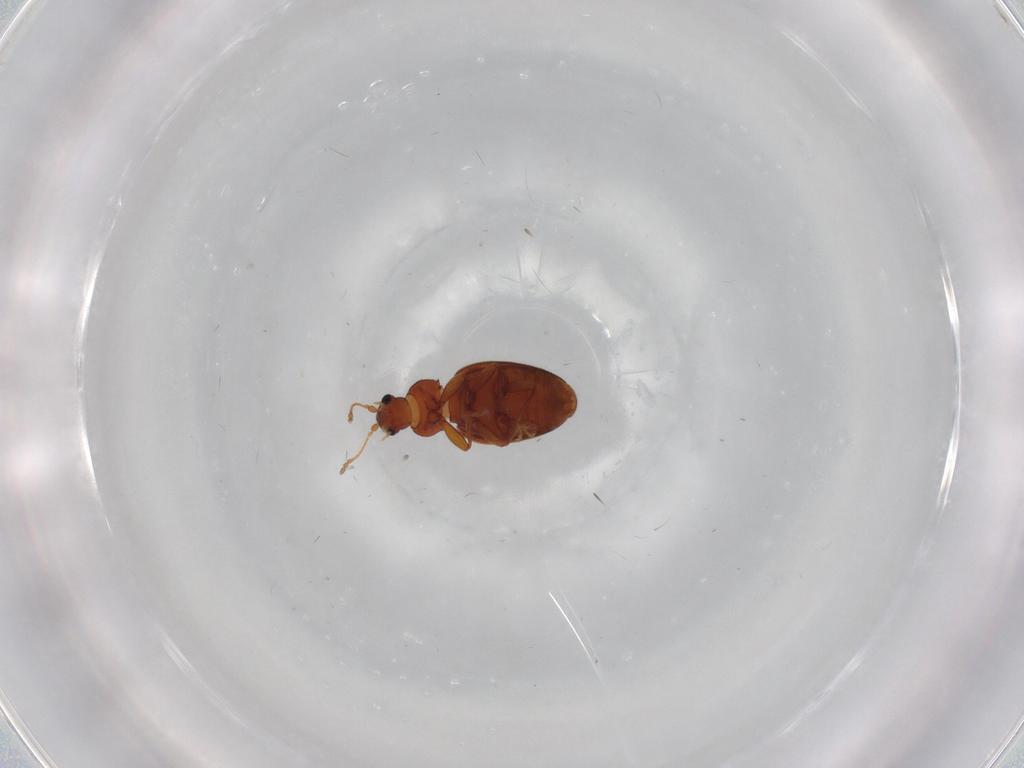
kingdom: Animalia
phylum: Arthropoda
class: Insecta
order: Coleoptera
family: Latridiidae
